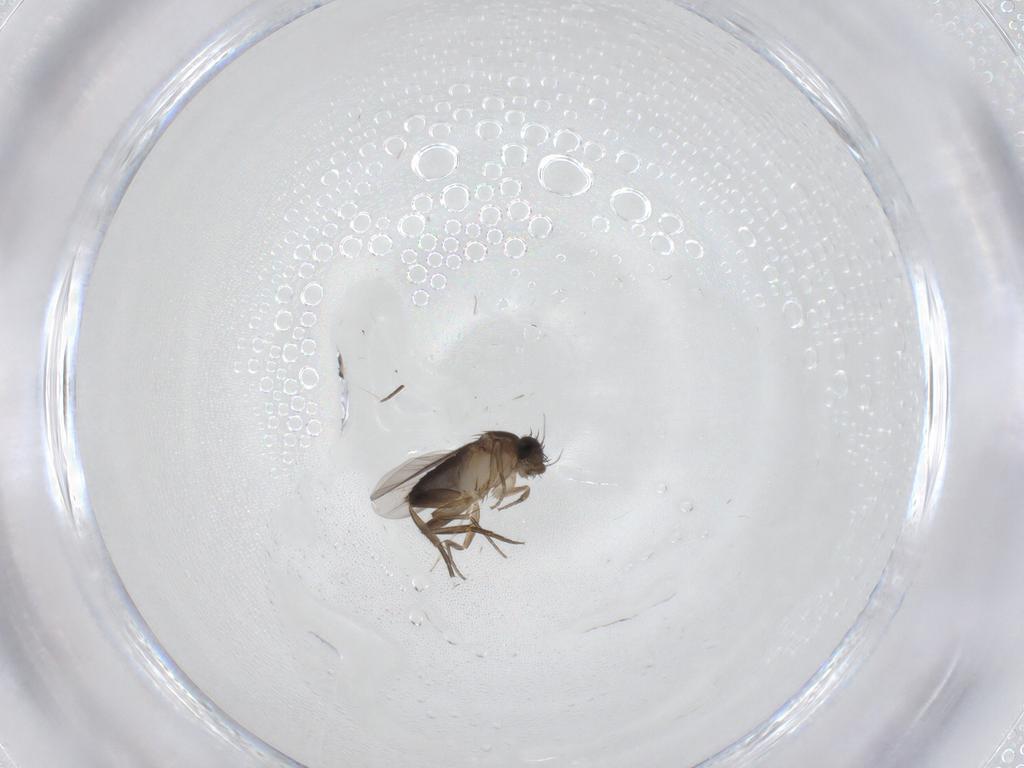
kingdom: Animalia
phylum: Arthropoda
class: Insecta
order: Diptera
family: Phoridae
